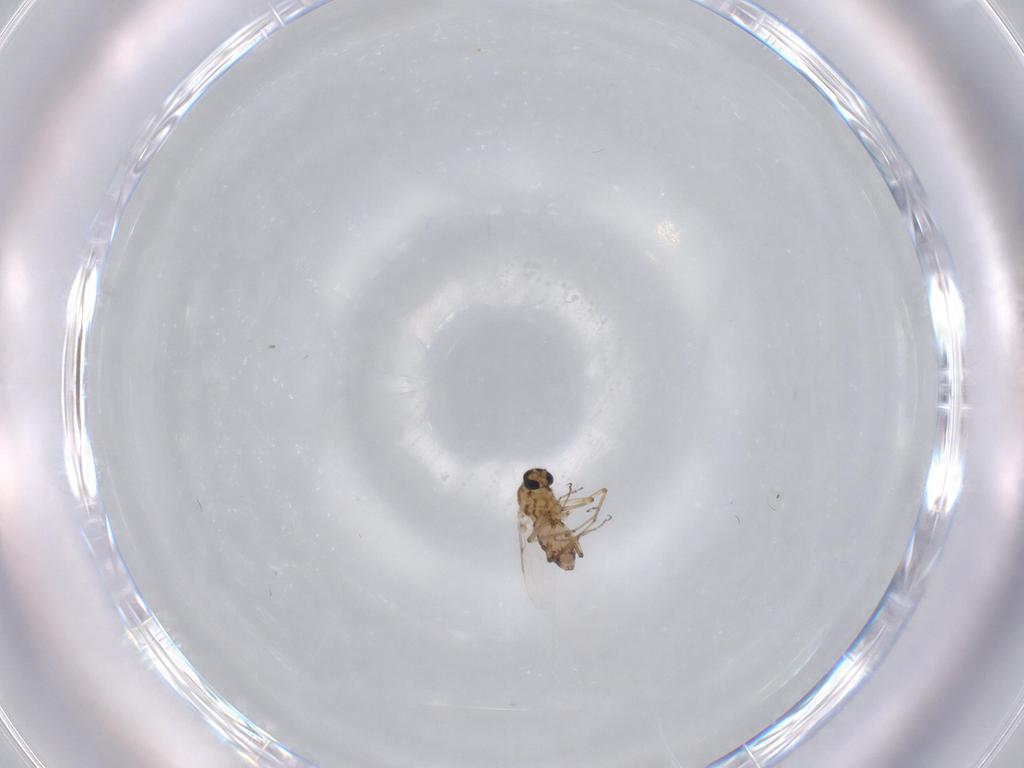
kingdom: Animalia
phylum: Arthropoda
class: Insecta
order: Diptera
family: Ceratopogonidae
